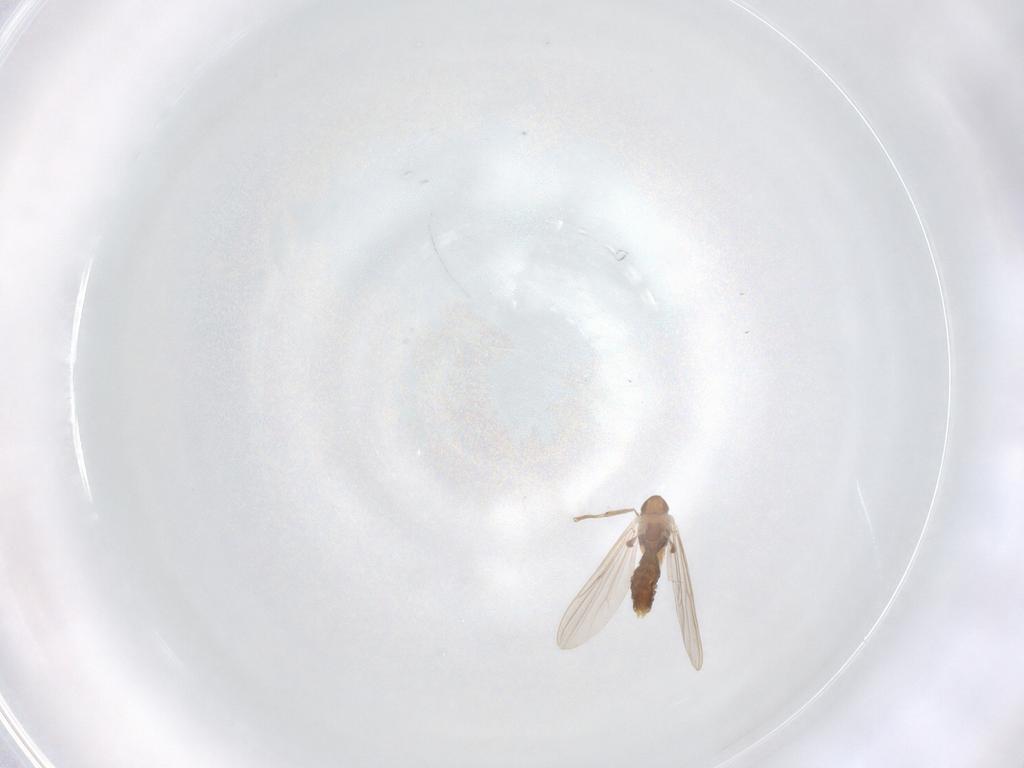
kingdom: Animalia
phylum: Arthropoda
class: Insecta
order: Diptera
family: Chironomidae
